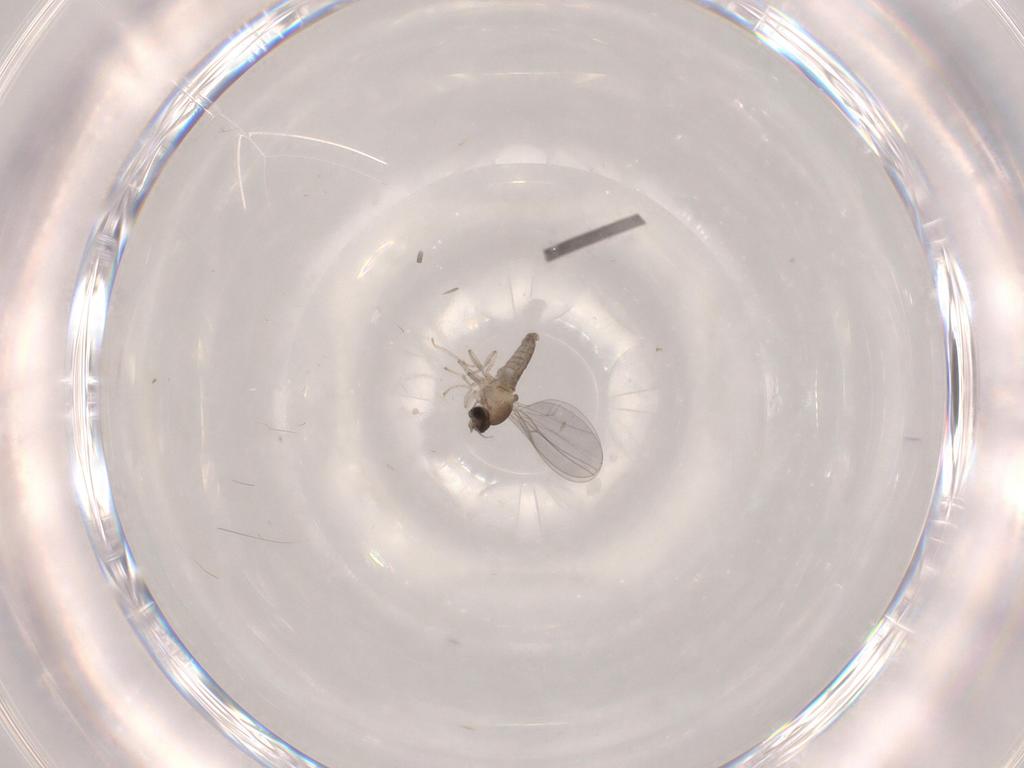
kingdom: Animalia
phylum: Arthropoda
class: Insecta
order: Diptera
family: Cecidomyiidae
